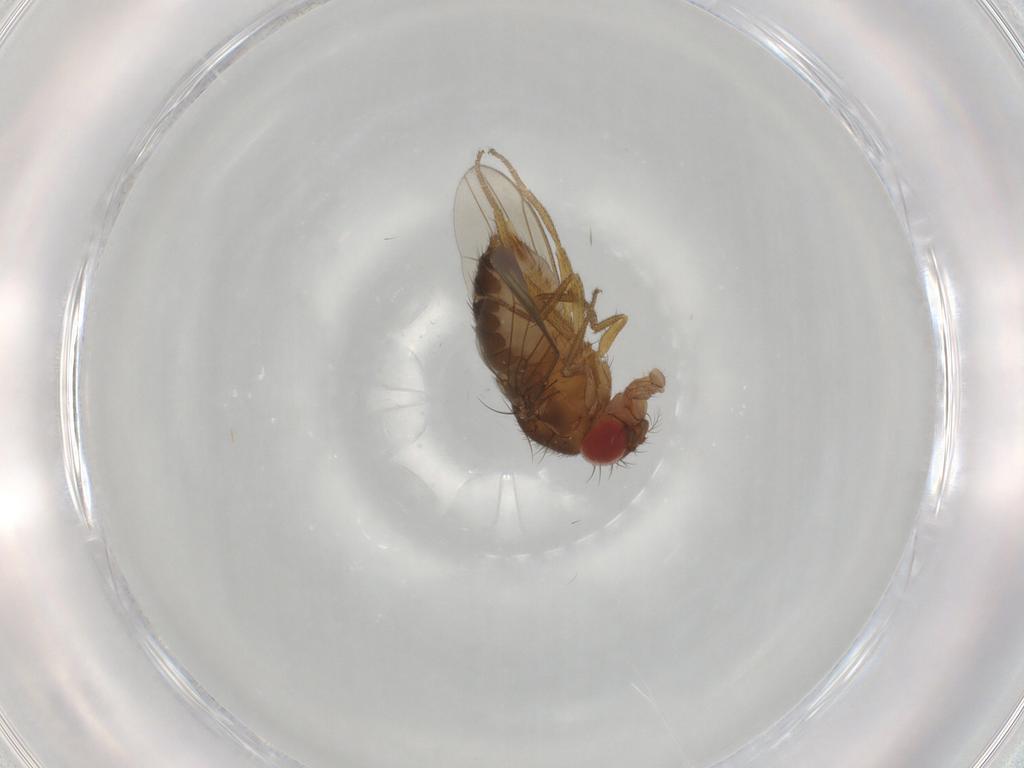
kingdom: Animalia
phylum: Arthropoda
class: Insecta
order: Diptera
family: Drosophilidae
